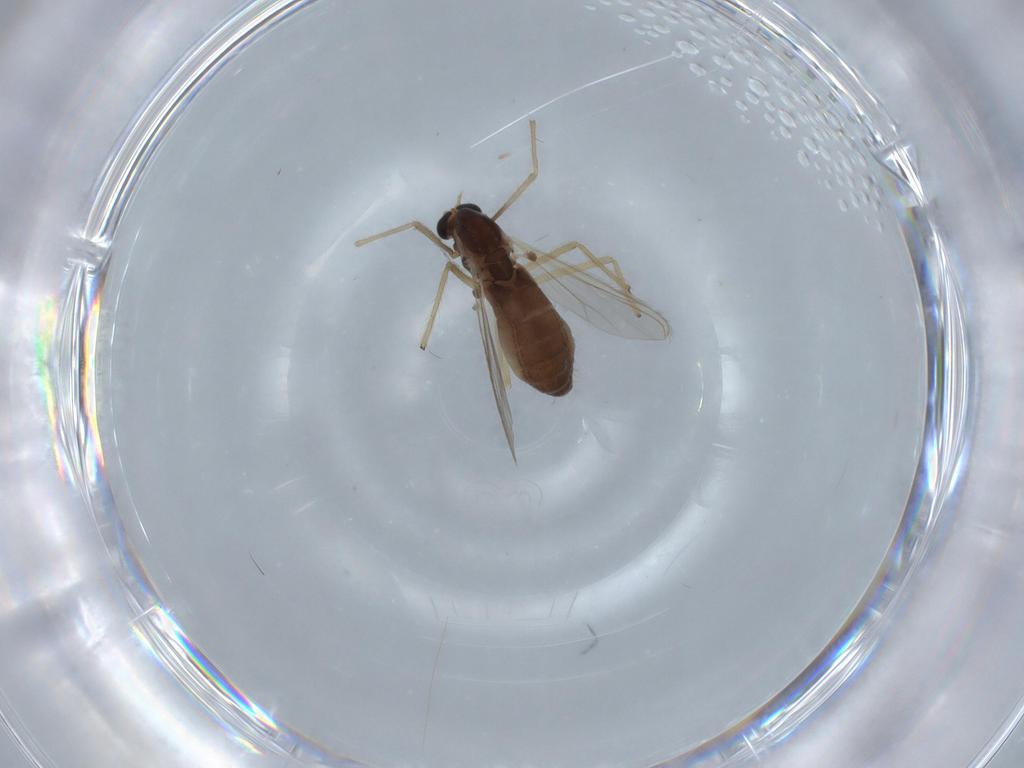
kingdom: Animalia
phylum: Arthropoda
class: Insecta
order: Diptera
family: Chironomidae
